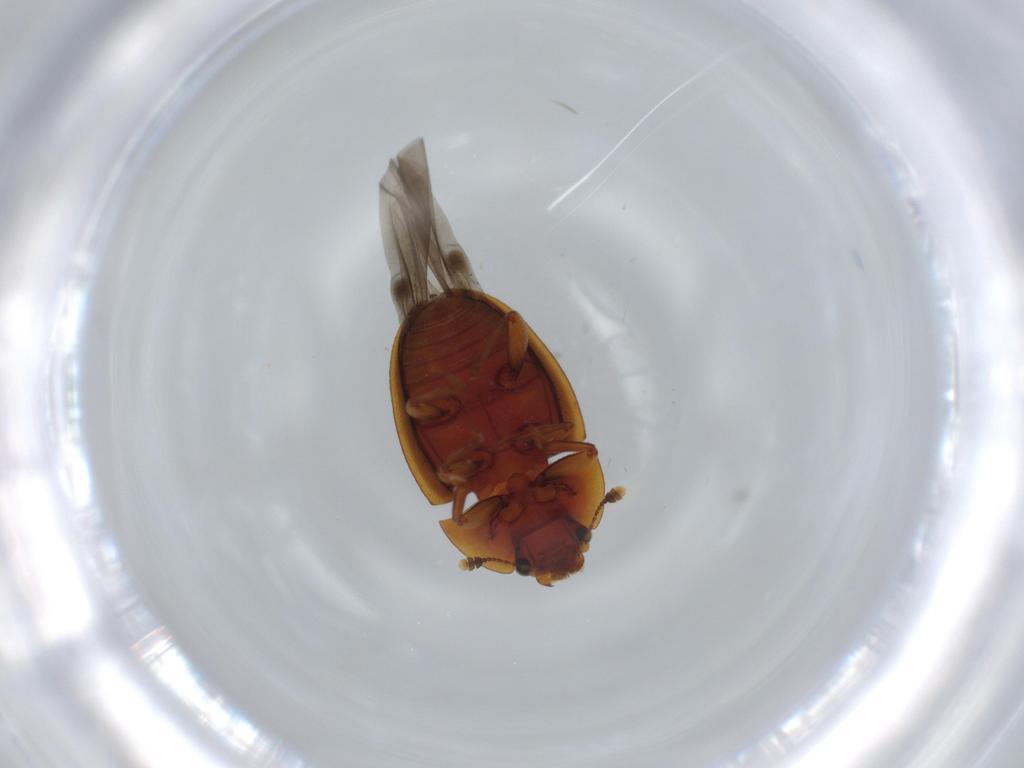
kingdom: Animalia
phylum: Arthropoda
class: Insecta
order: Coleoptera
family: Nitidulidae
